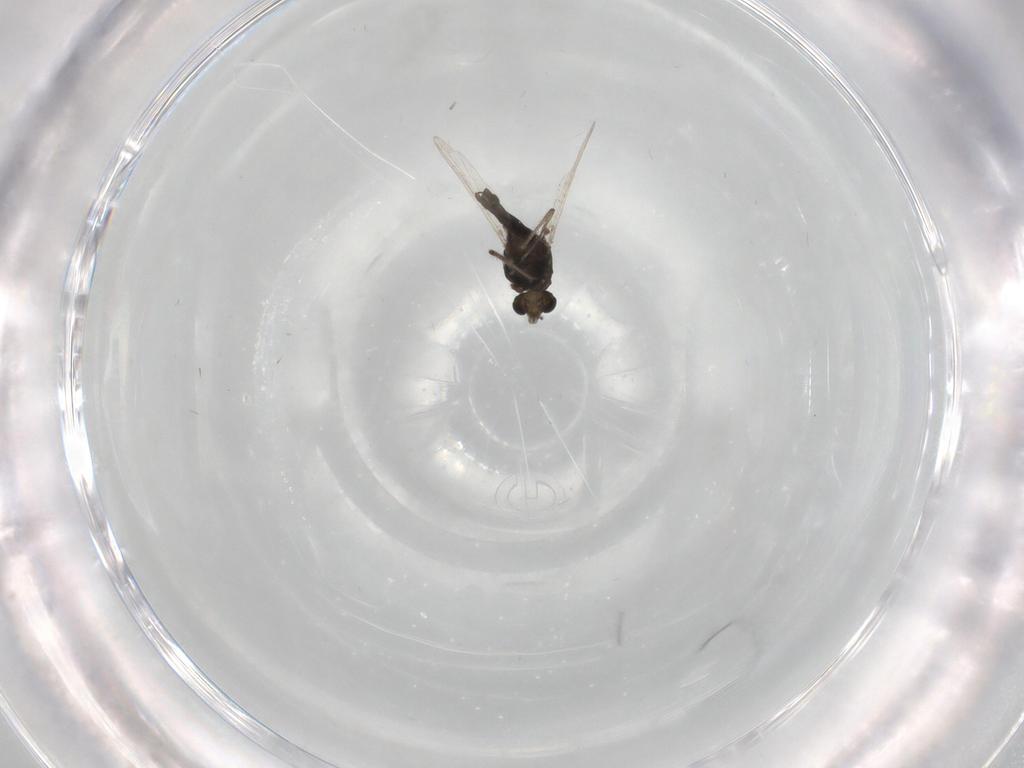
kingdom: Animalia
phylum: Arthropoda
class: Insecta
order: Diptera
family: Chironomidae
